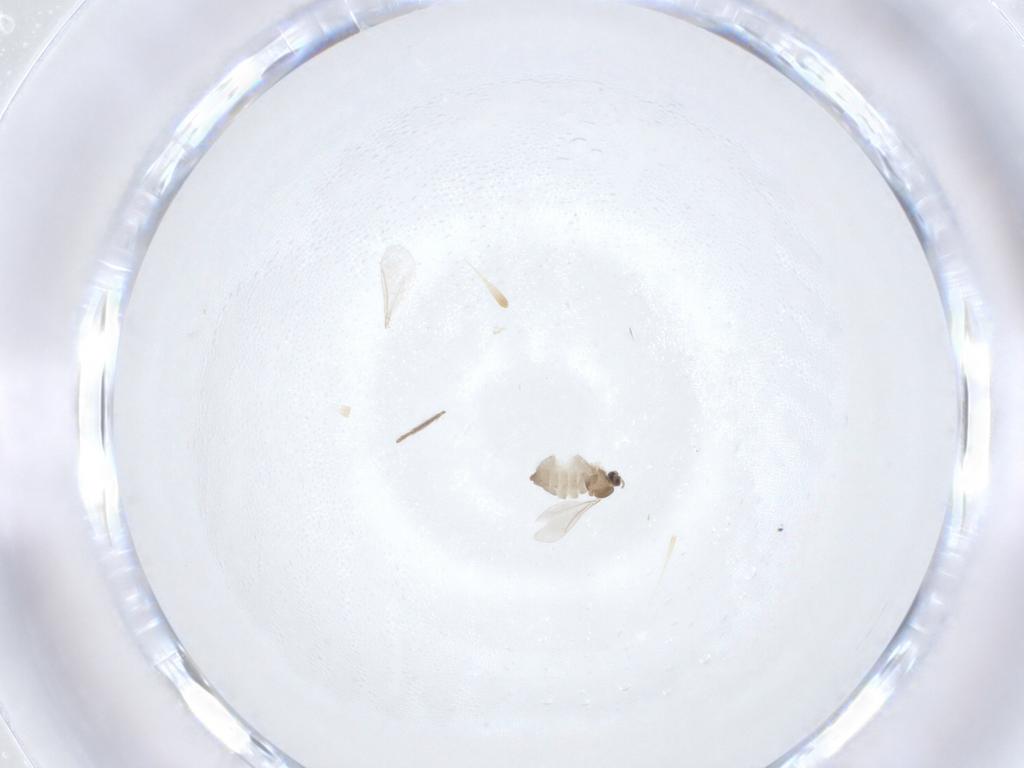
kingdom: Animalia
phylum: Arthropoda
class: Insecta
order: Diptera
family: Cecidomyiidae
